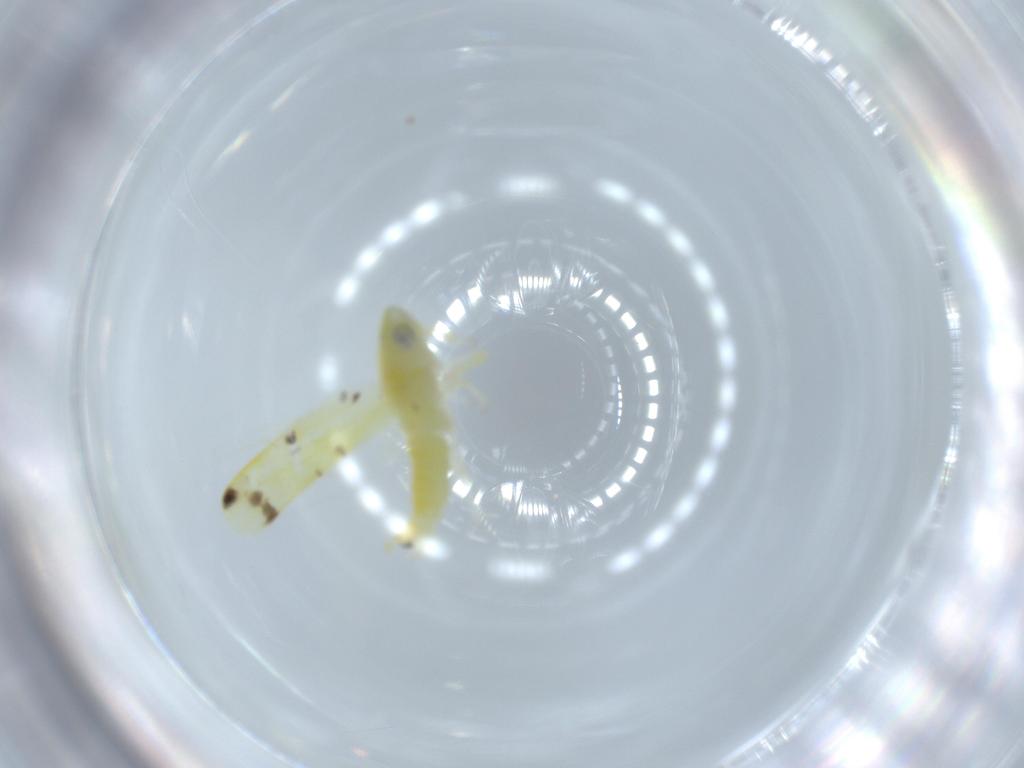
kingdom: Animalia
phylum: Arthropoda
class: Insecta
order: Hemiptera
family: Cicadellidae
